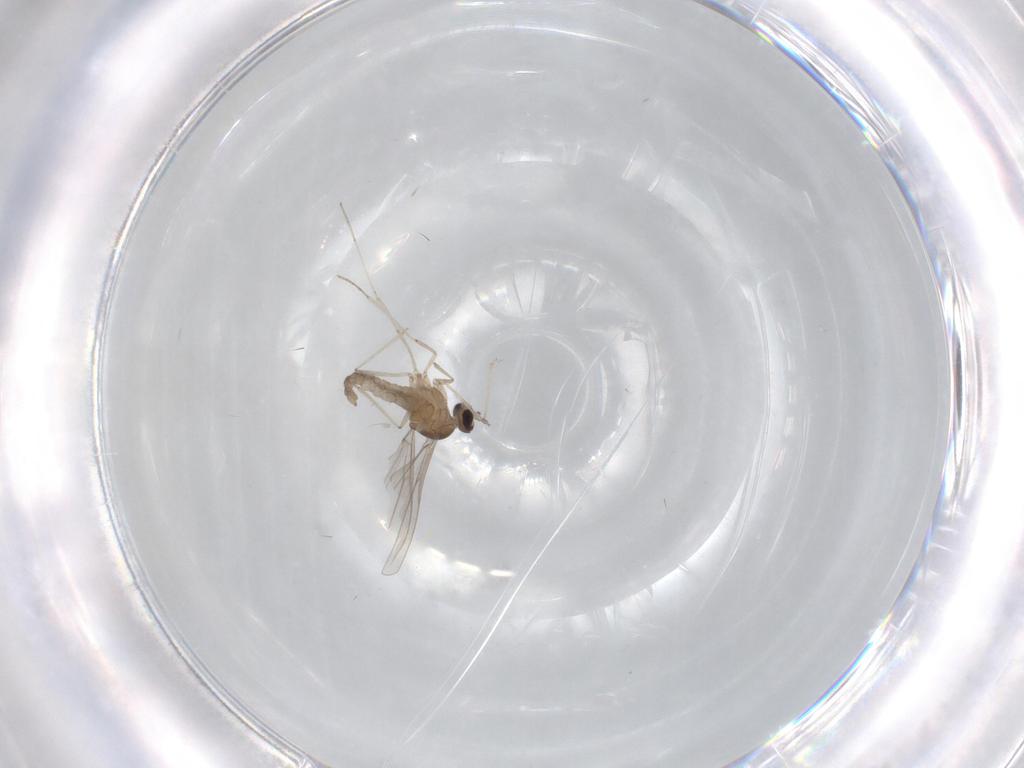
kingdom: Animalia
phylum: Arthropoda
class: Insecta
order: Diptera
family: Cecidomyiidae
